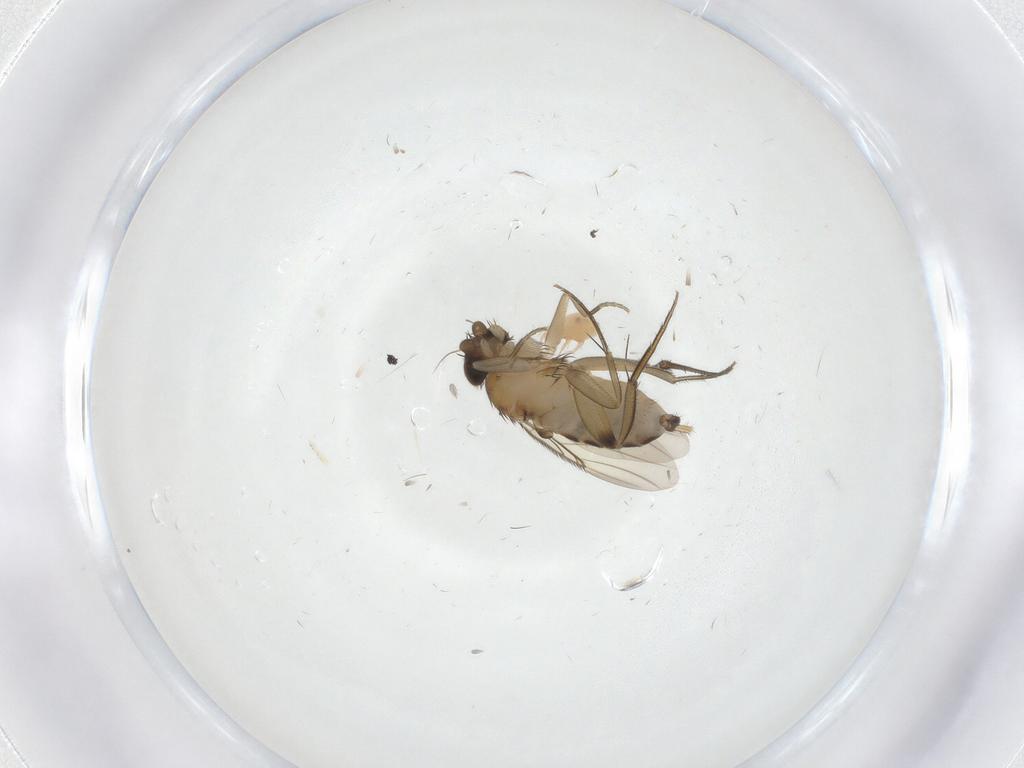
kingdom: Animalia
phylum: Arthropoda
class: Insecta
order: Diptera
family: Phoridae
